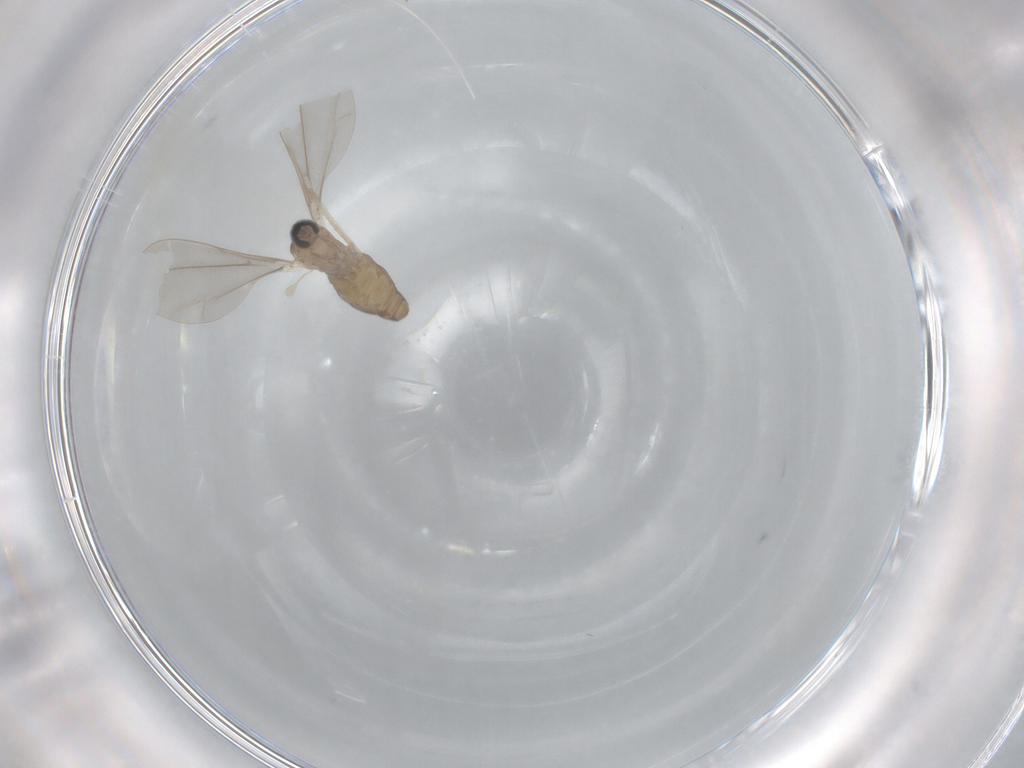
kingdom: Animalia
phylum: Arthropoda
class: Insecta
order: Diptera
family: Cecidomyiidae
